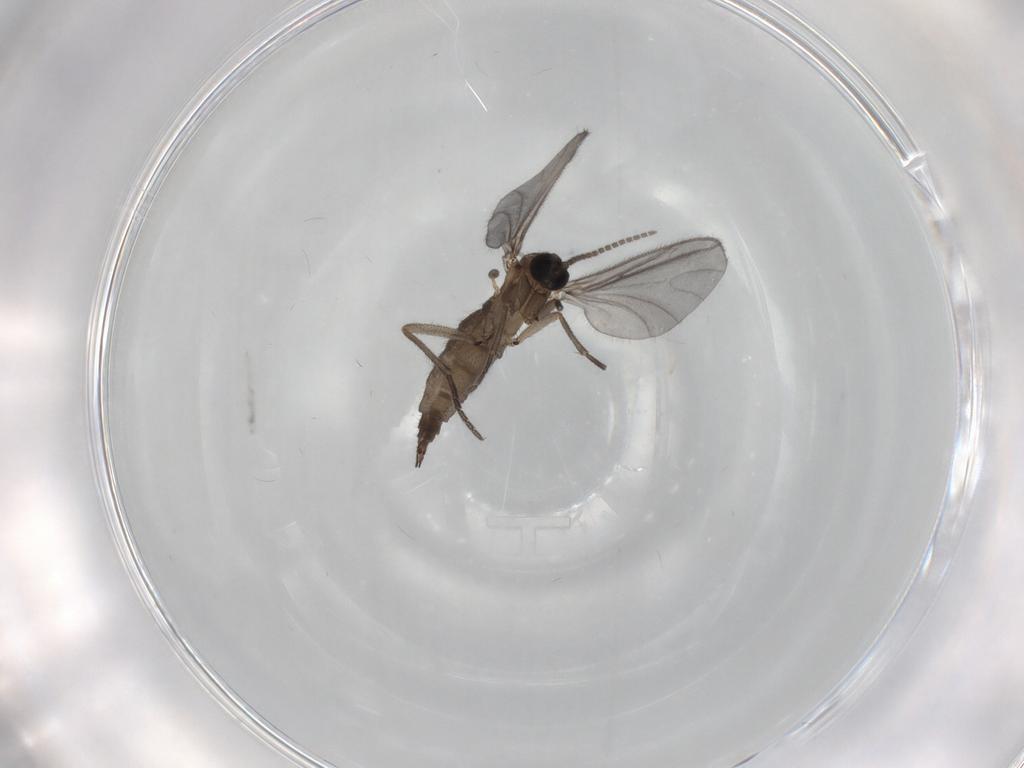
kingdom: Animalia
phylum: Arthropoda
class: Insecta
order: Diptera
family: Sciaridae
